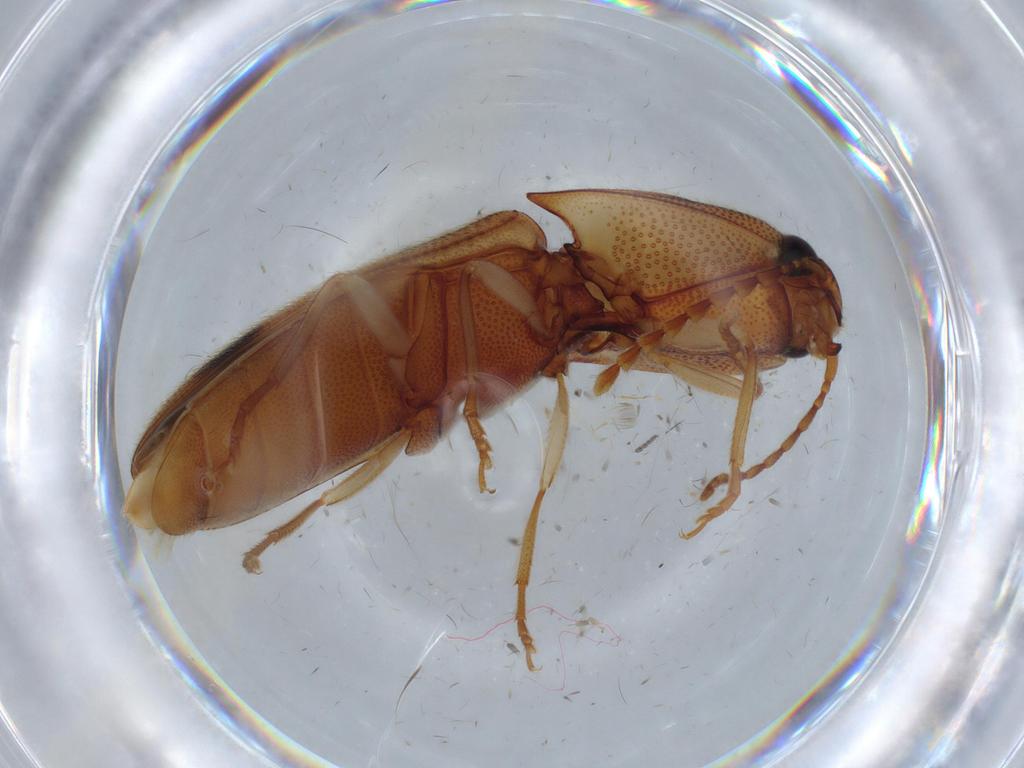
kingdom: Animalia
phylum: Arthropoda
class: Insecta
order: Coleoptera
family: Elateridae
